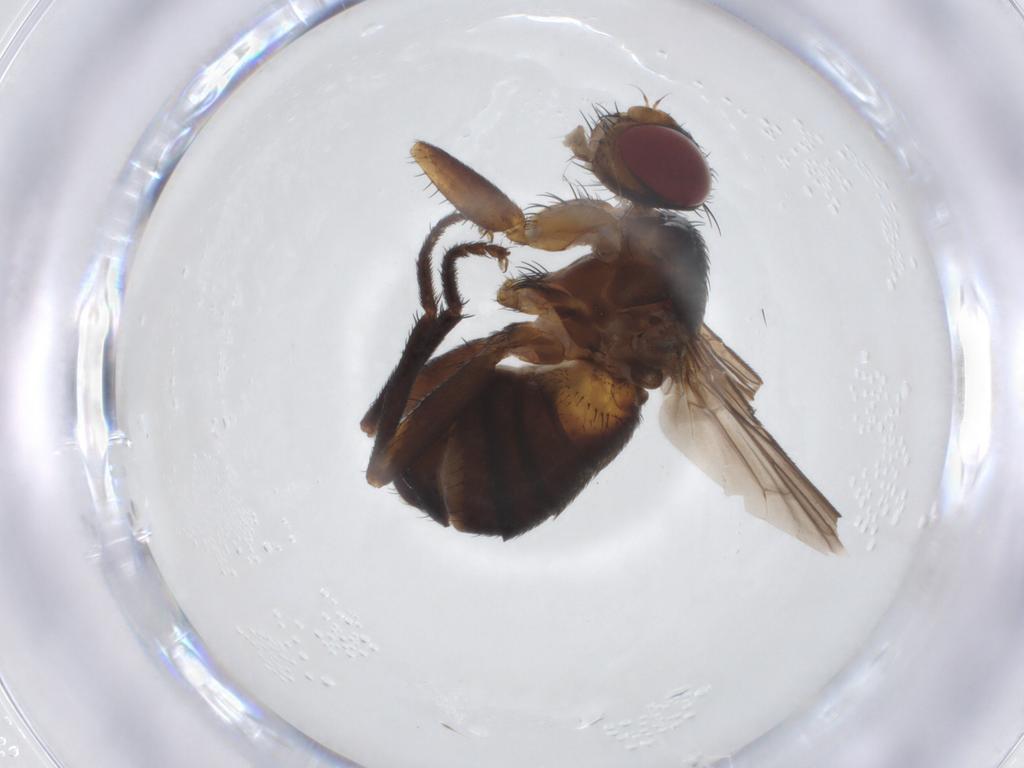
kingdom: Animalia
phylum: Arthropoda
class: Insecta
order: Diptera
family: Tachinidae
